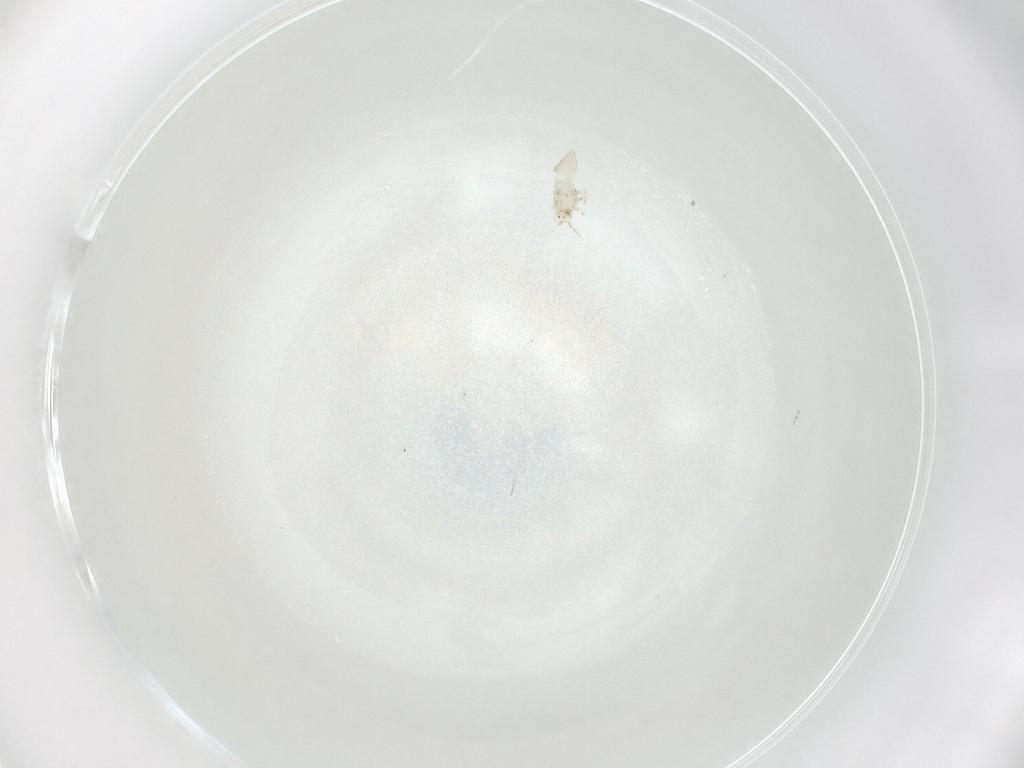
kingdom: Animalia
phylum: Arthropoda
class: Insecta
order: Thysanoptera
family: Thripidae
